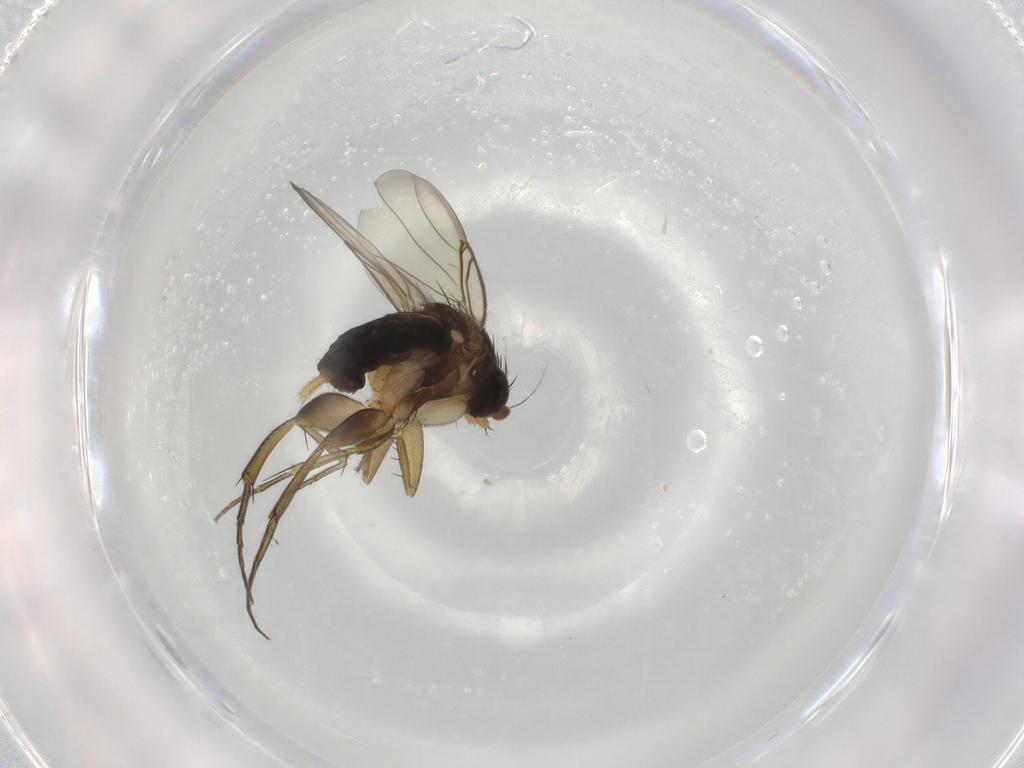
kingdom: Animalia
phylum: Arthropoda
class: Insecta
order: Diptera
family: Phoridae
